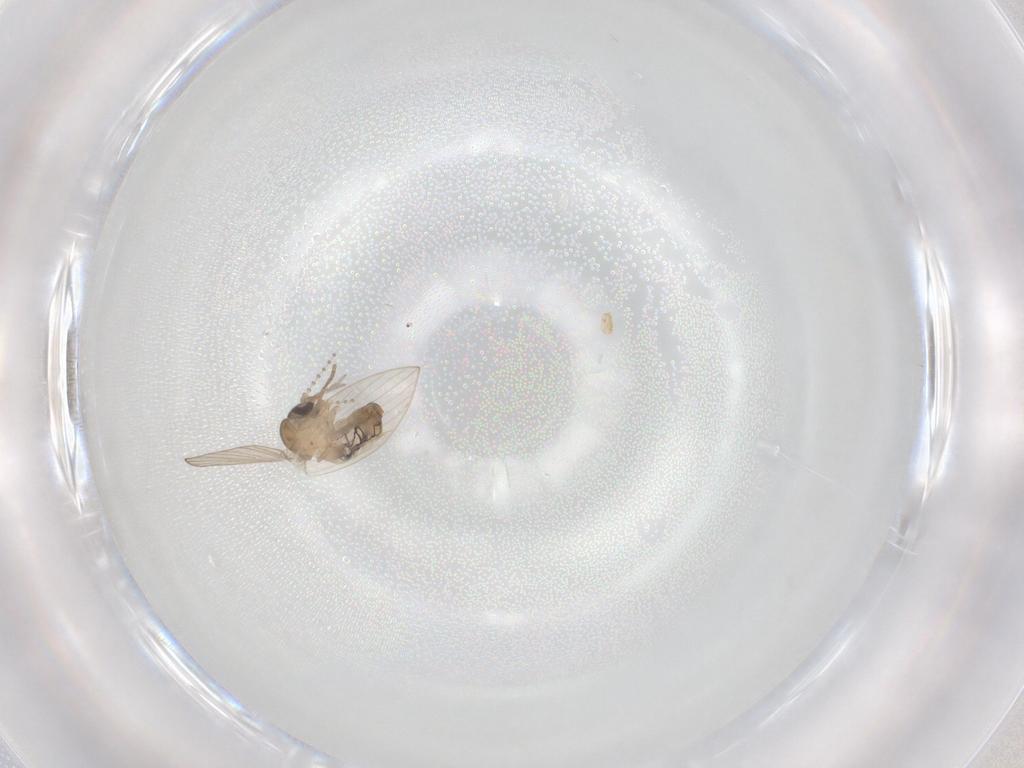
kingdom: Animalia
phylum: Arthropoda
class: Insecta
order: Diptera
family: Psychodidae
